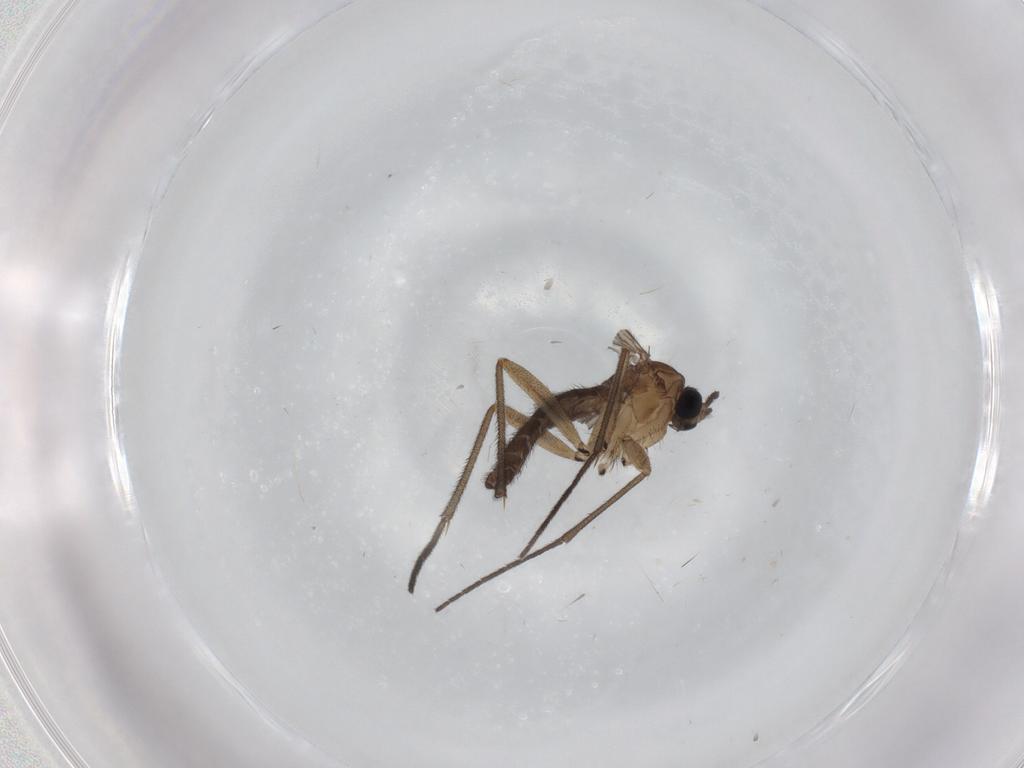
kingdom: Animalia
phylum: Arthropoda
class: Insecta
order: Diptera
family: Sciaridae
